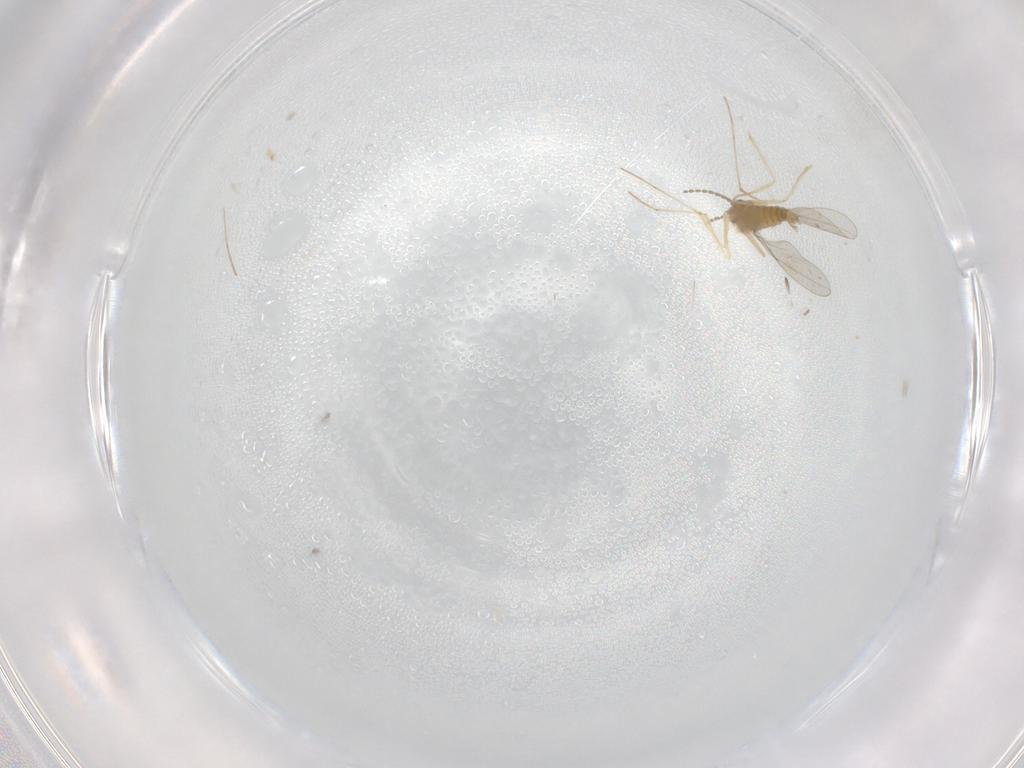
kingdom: Animalia
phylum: Arthropoda
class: Insecta
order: Diptera
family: Cecidomyiidae
